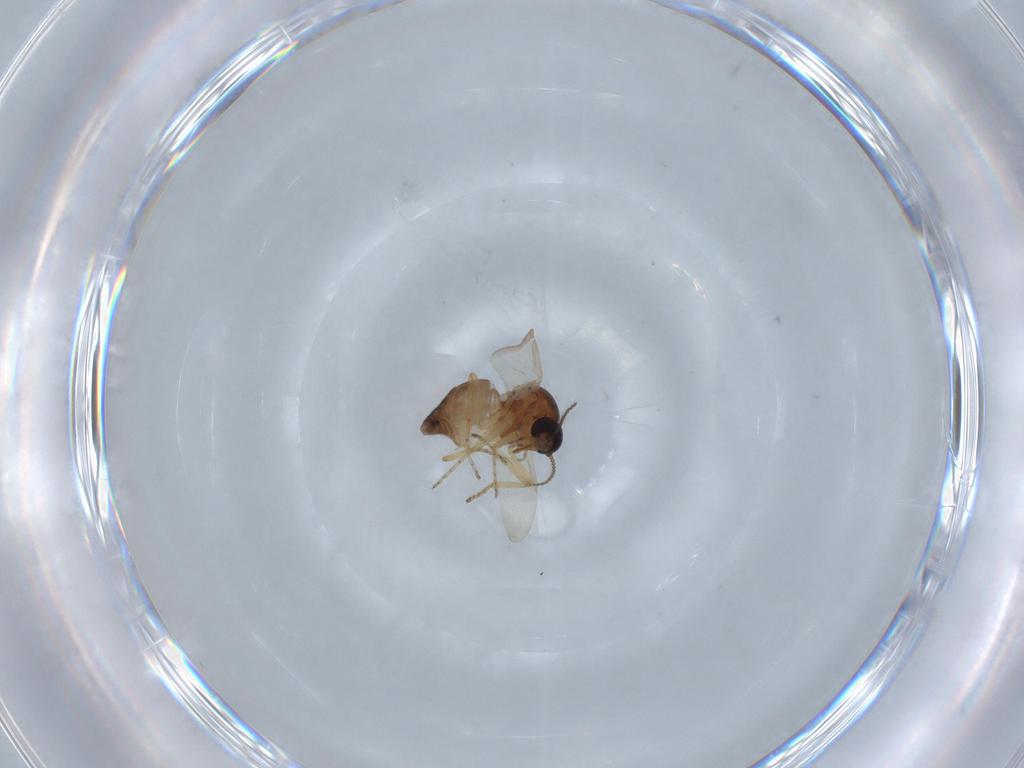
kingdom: Animalia
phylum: Arthropoda
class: Insecta
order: Diptera
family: Ceratopogonidae
